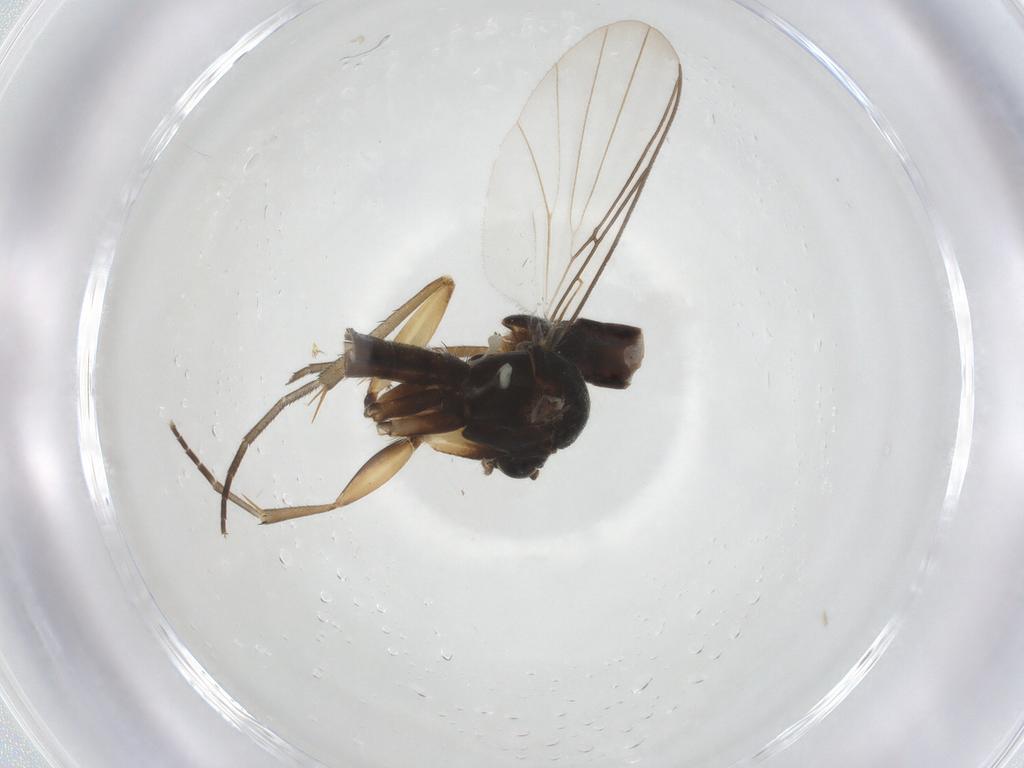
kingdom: Animalia
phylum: Arthropoda
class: Insecta
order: Diptera
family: Mycetophilidae
